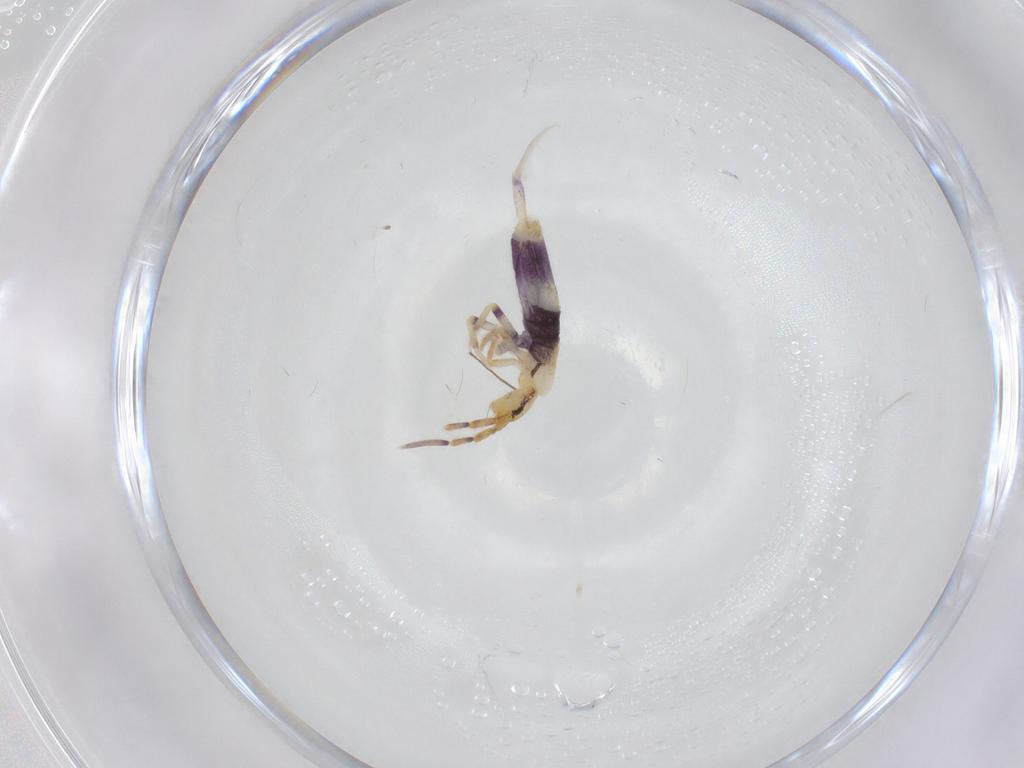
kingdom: Animalia
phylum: Arthropoda
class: Collembola
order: Entomobryomorpha
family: Entomobryidae
